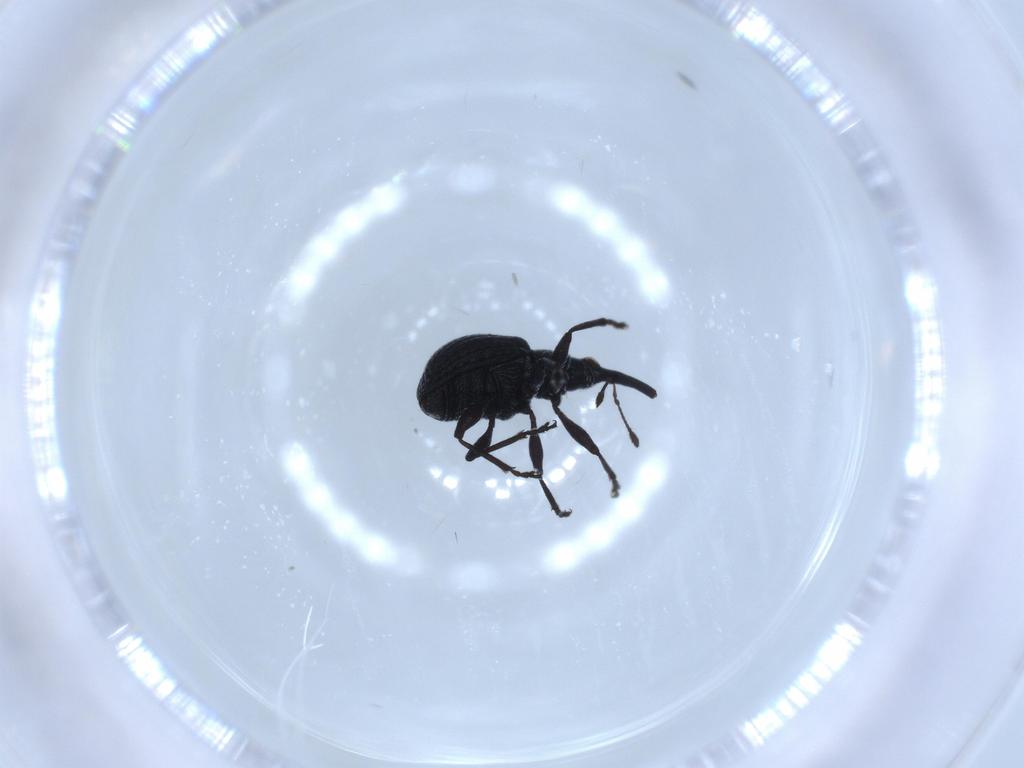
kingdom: Animalia
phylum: Arthropoda
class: Insecta
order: Coleoptera
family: Brentidae
